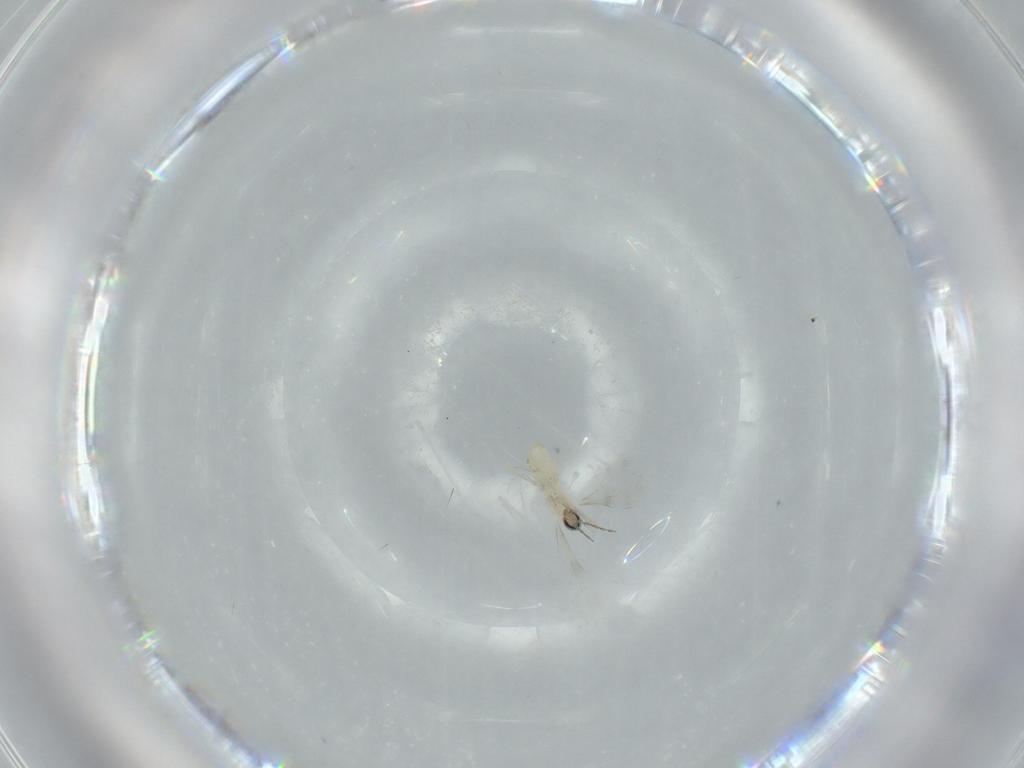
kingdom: Animalia
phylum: Arthropoda
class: Insecta
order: Diptera
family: Cecidomyiidae
